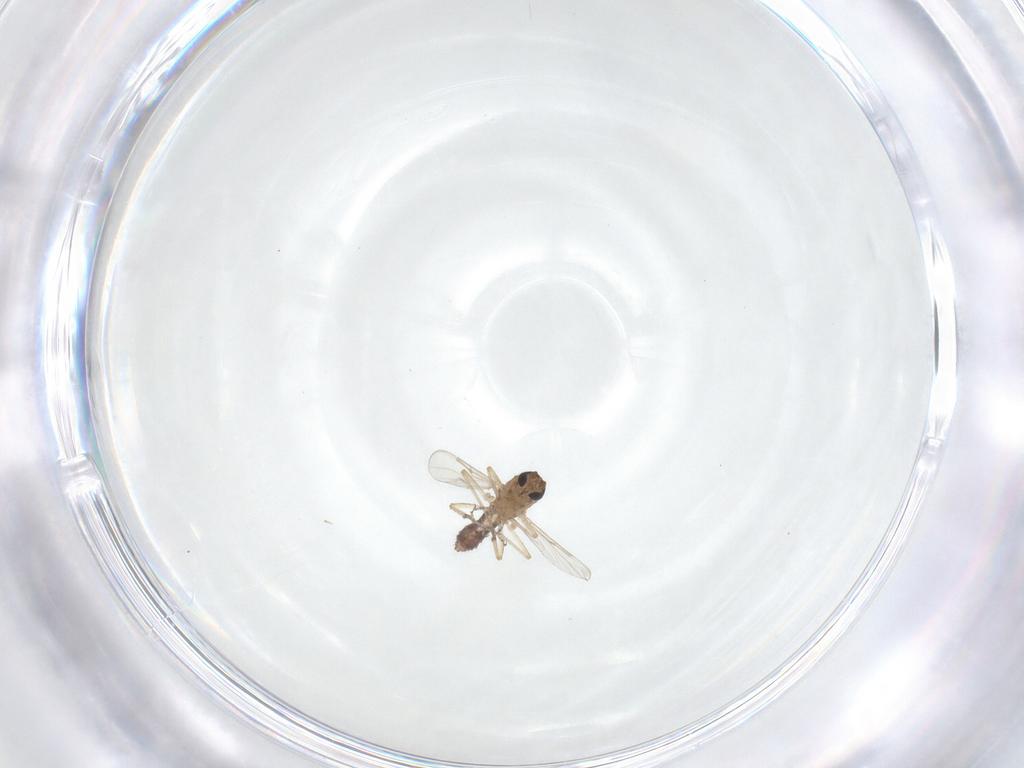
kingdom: Animalia
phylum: Arthropoda
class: Insecta
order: Diptera
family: Ceratopogonidae
